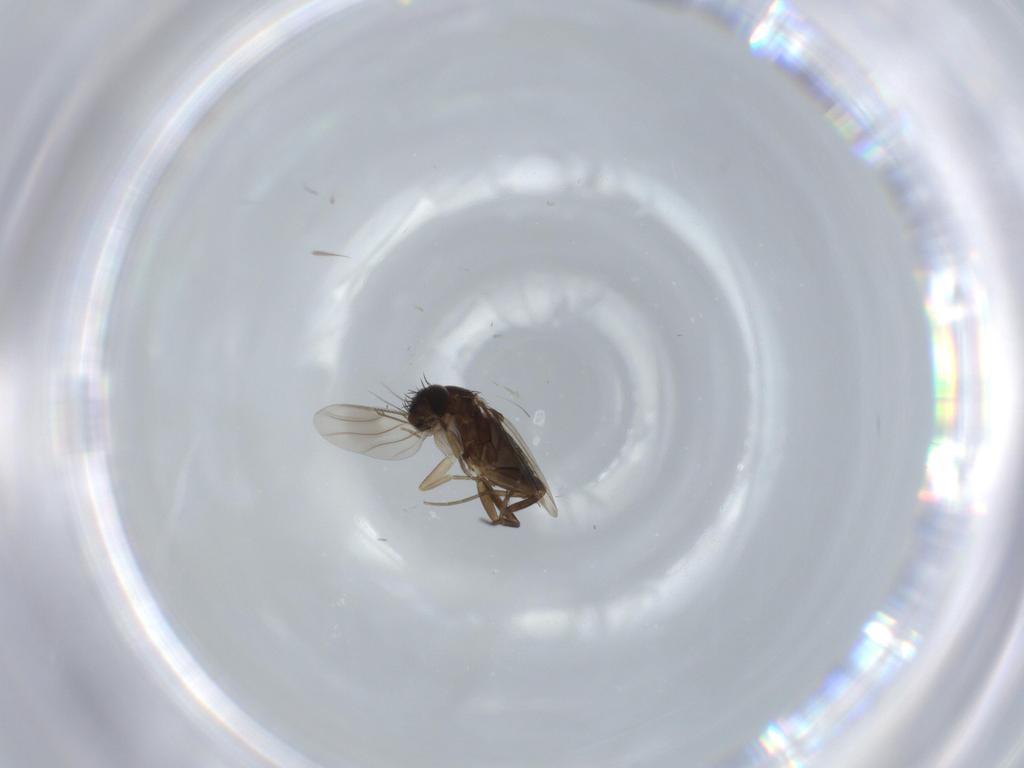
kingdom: Animalia
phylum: Arthropoda
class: Insecta
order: Diptera
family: Phoridae
